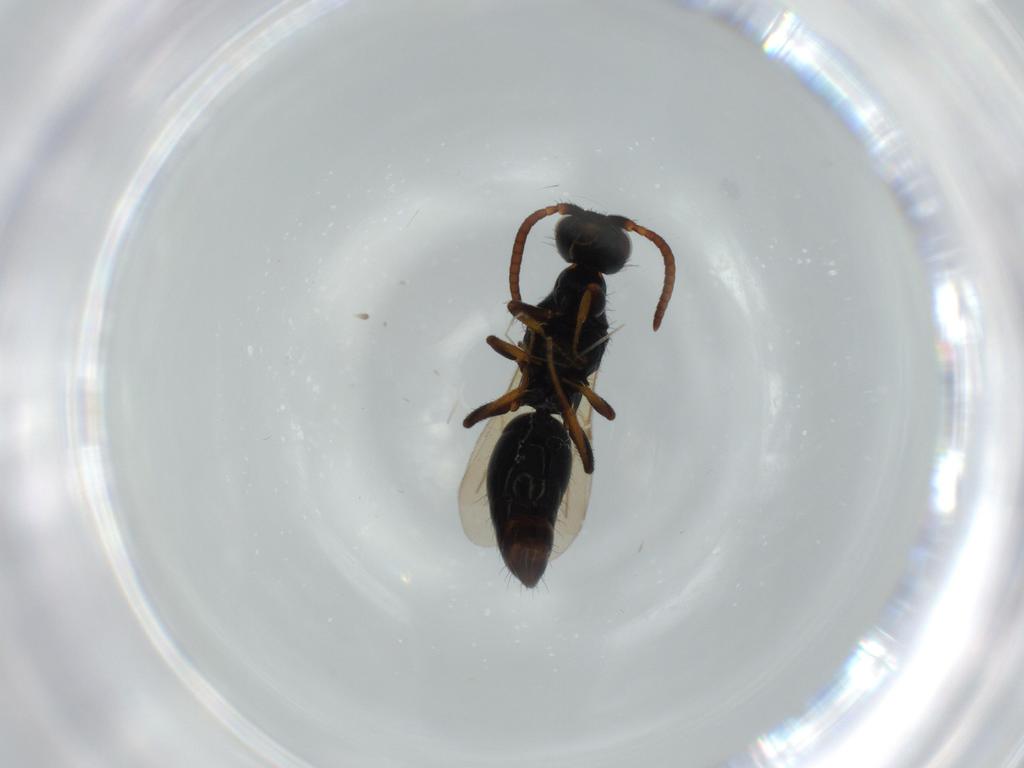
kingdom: Animalia
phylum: Arthropoda
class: Insecta
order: Hymenoptera
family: Bethylidae
